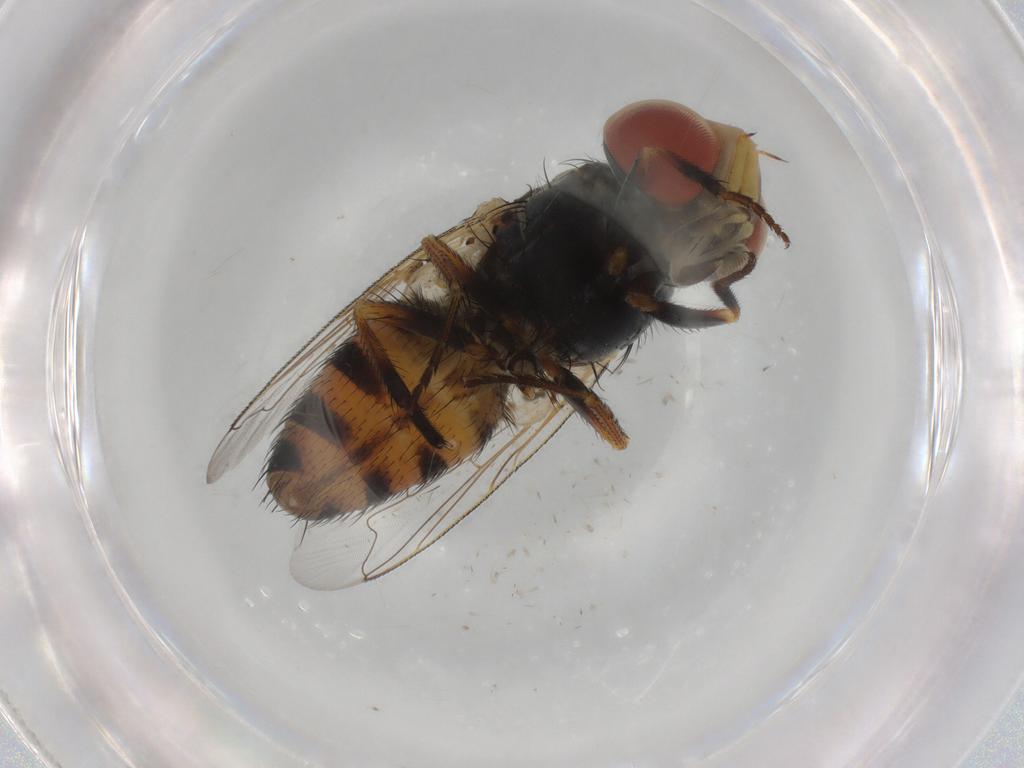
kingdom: Animalia
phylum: Arthropoda
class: Insecta
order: Diptera
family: Dolichopodidae
